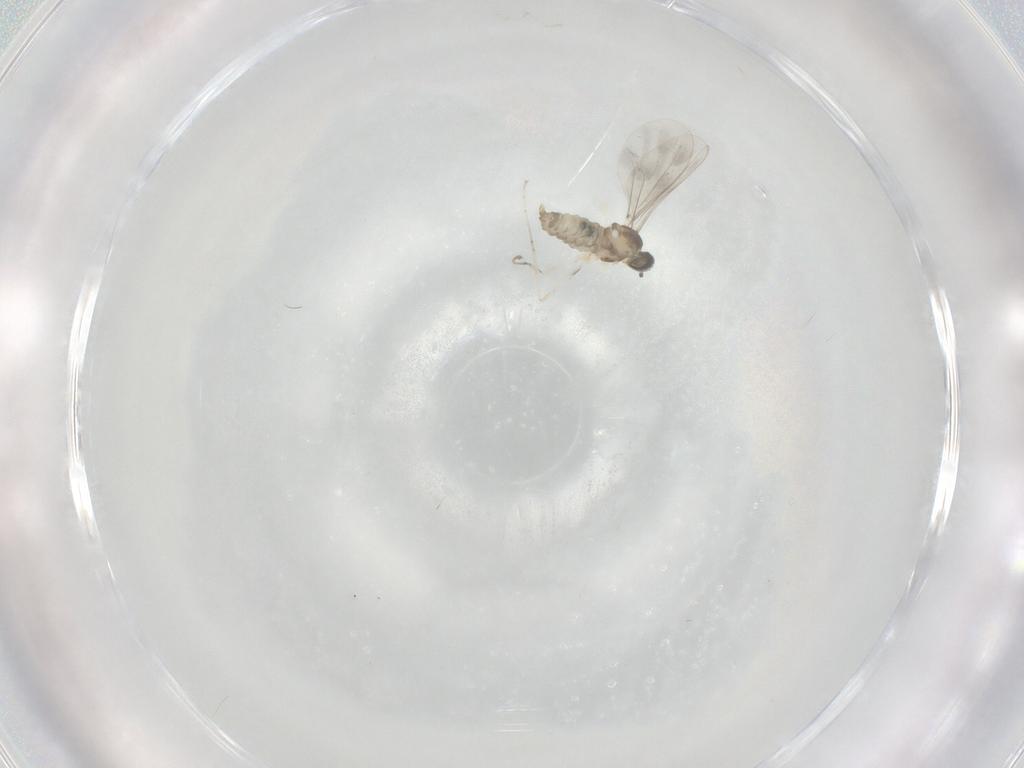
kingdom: Animalia
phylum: Arthropoda
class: Insecta
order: Diptera
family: Cecidomyiidae
